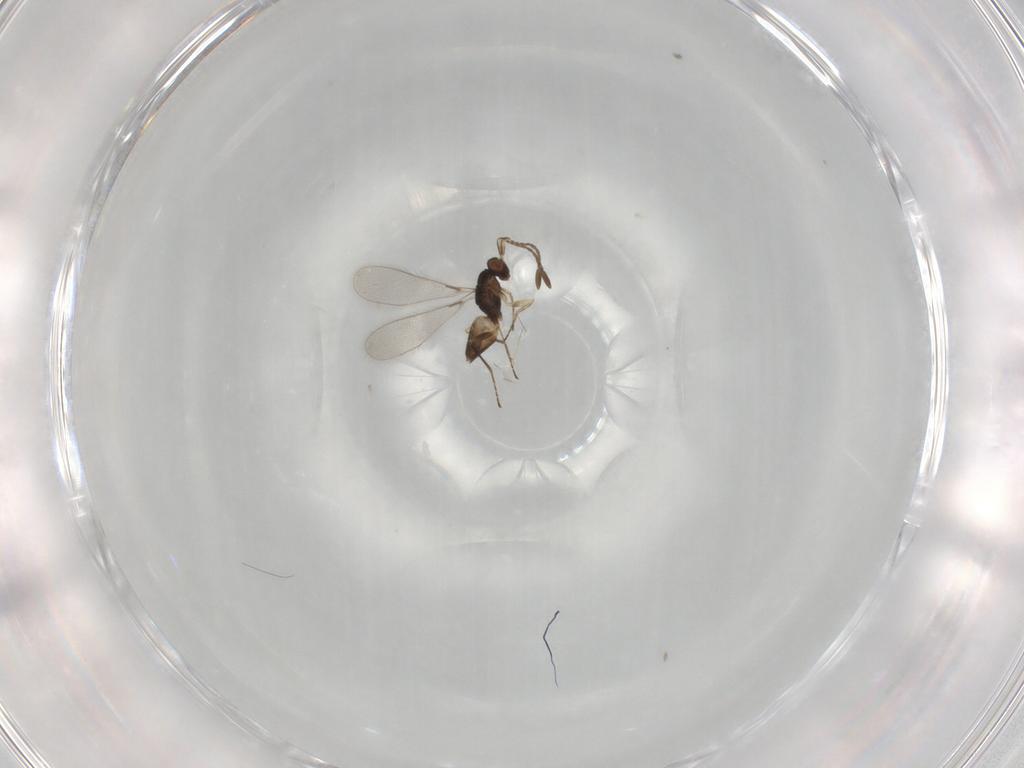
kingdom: Animalia
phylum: Arthropoda
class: Insecta
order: Hymenoptera
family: Mymaridae
